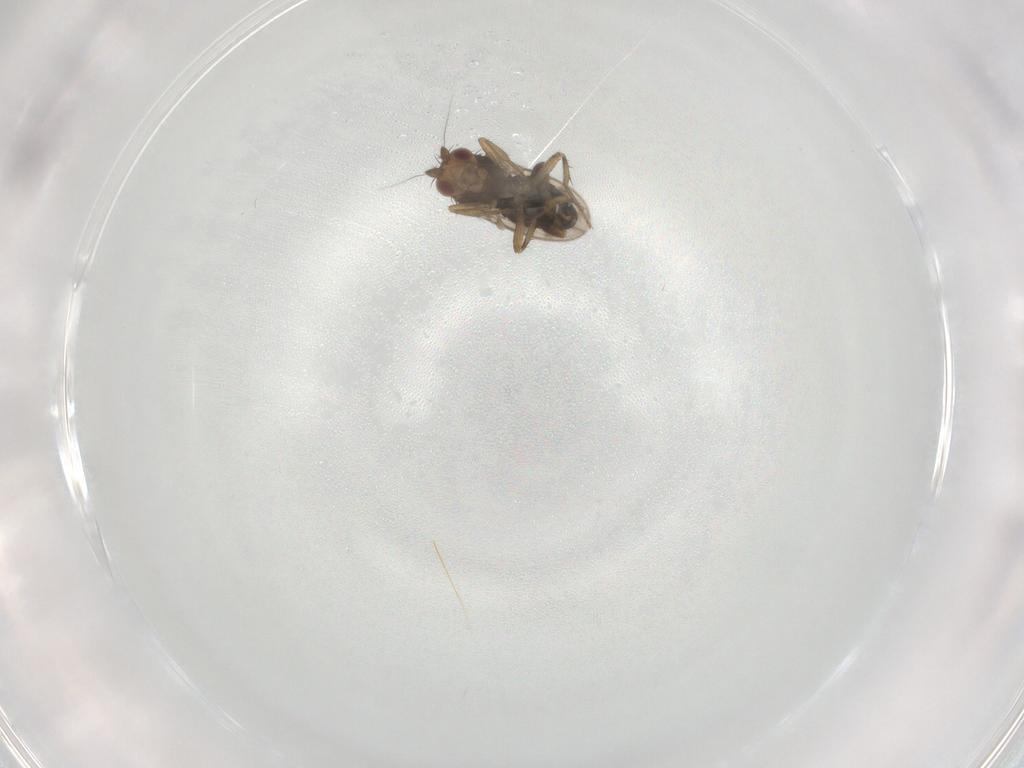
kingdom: Animalia
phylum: Arthropoda
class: Insecta
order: Diptera
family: Sphaeroceridae
